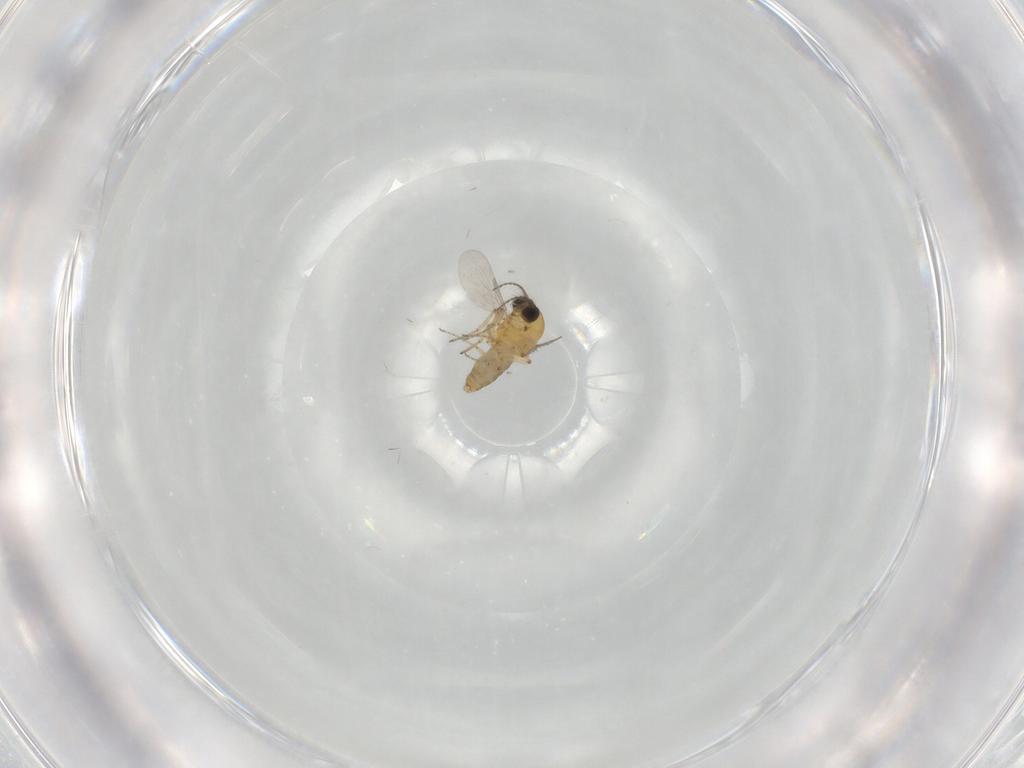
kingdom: Animalia
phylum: Arthropoda
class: Insecta
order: Diptera
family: Ceratopogonidae
